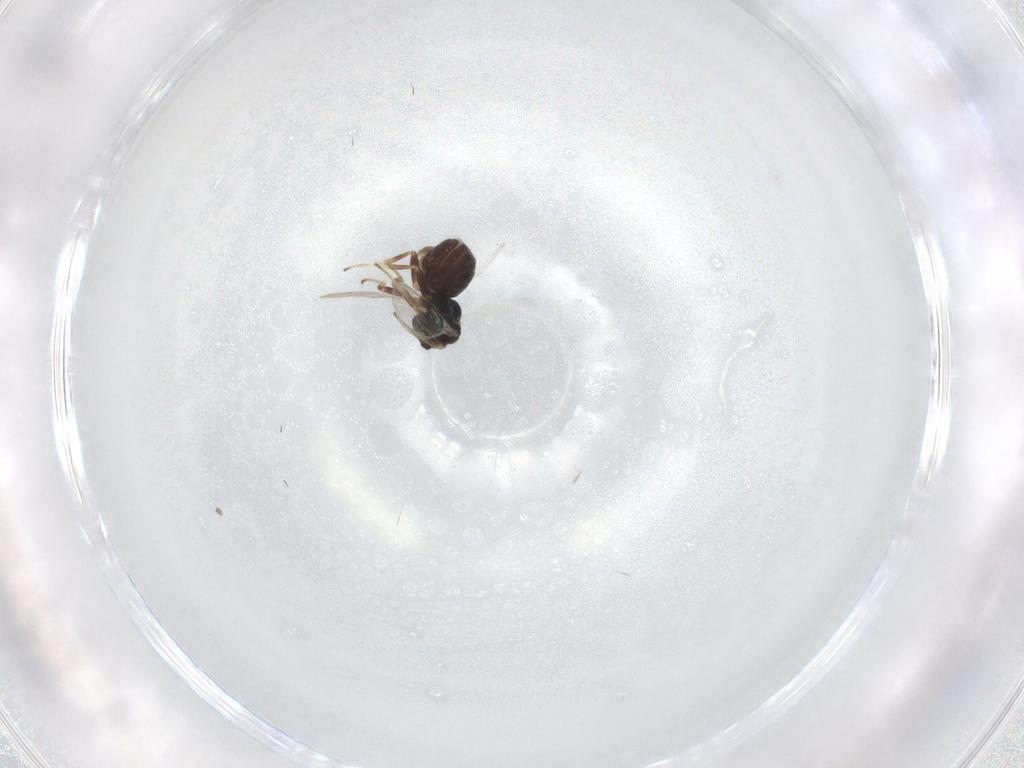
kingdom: Animalia
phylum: Arthropoda
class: Insecta
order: Hymenoptera
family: Pteromalidae
